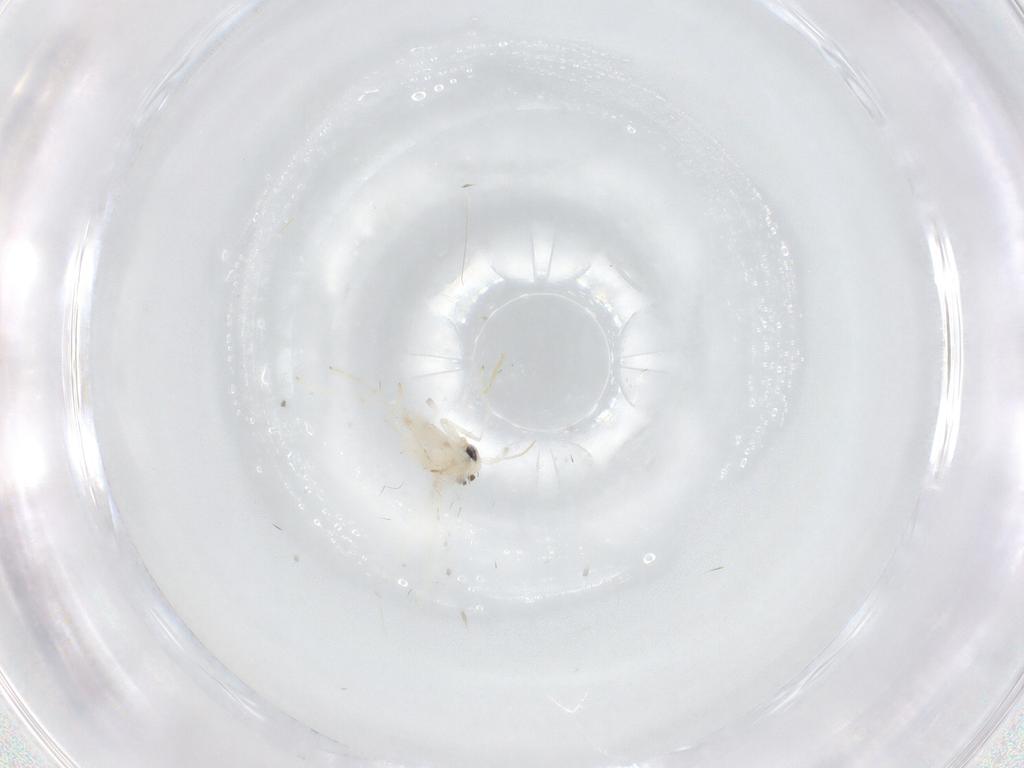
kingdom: Animalia
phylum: Arthropoda
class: Insecta
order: Lepidoptera
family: Gracillariidae
